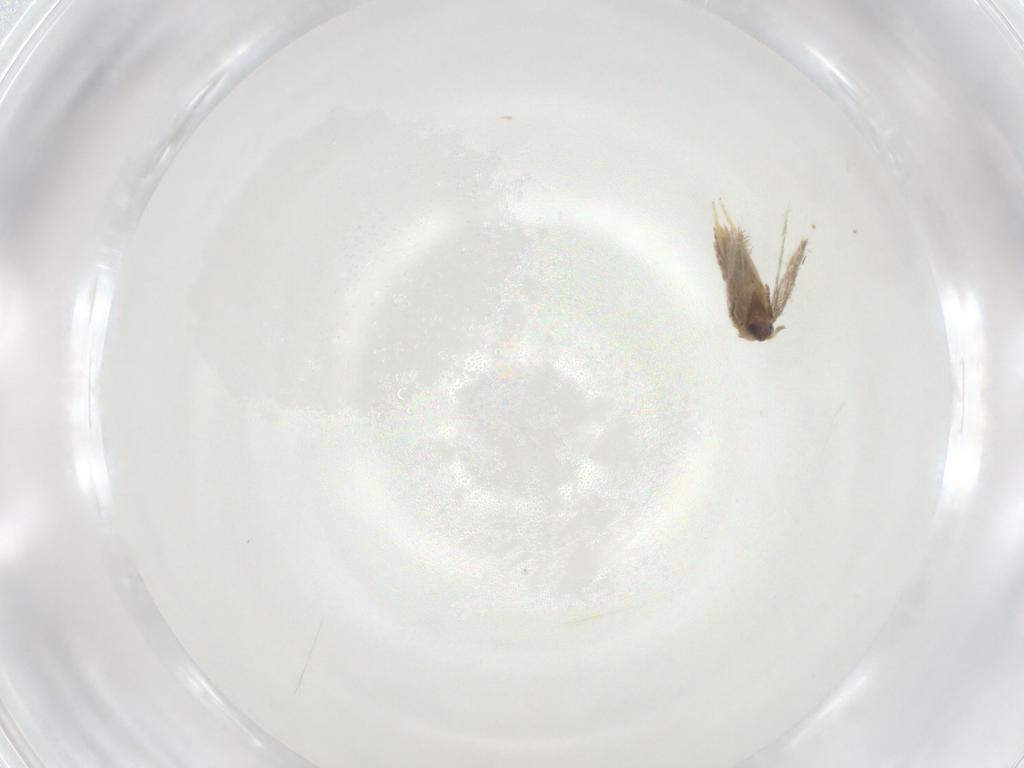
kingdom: Animalia
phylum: Arthropoda
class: Insecta
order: Lepidoptera
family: Nepticulidae
